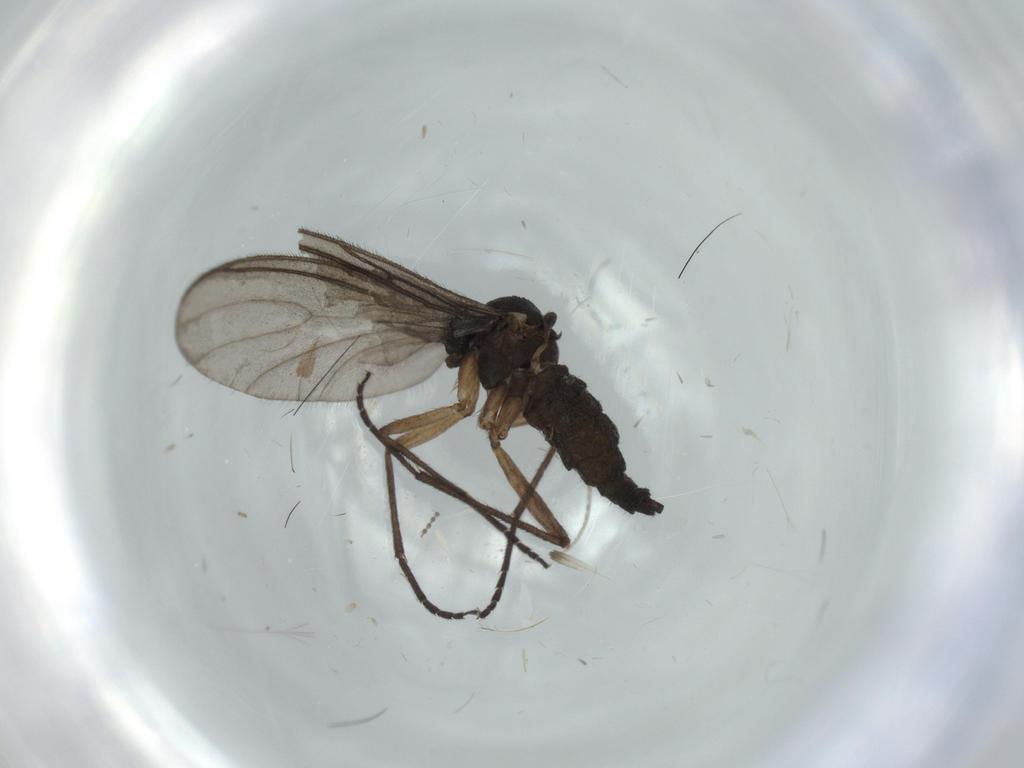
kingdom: Animalia
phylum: Arthropoda
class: Insecta
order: Diptera
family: Sciaridae
